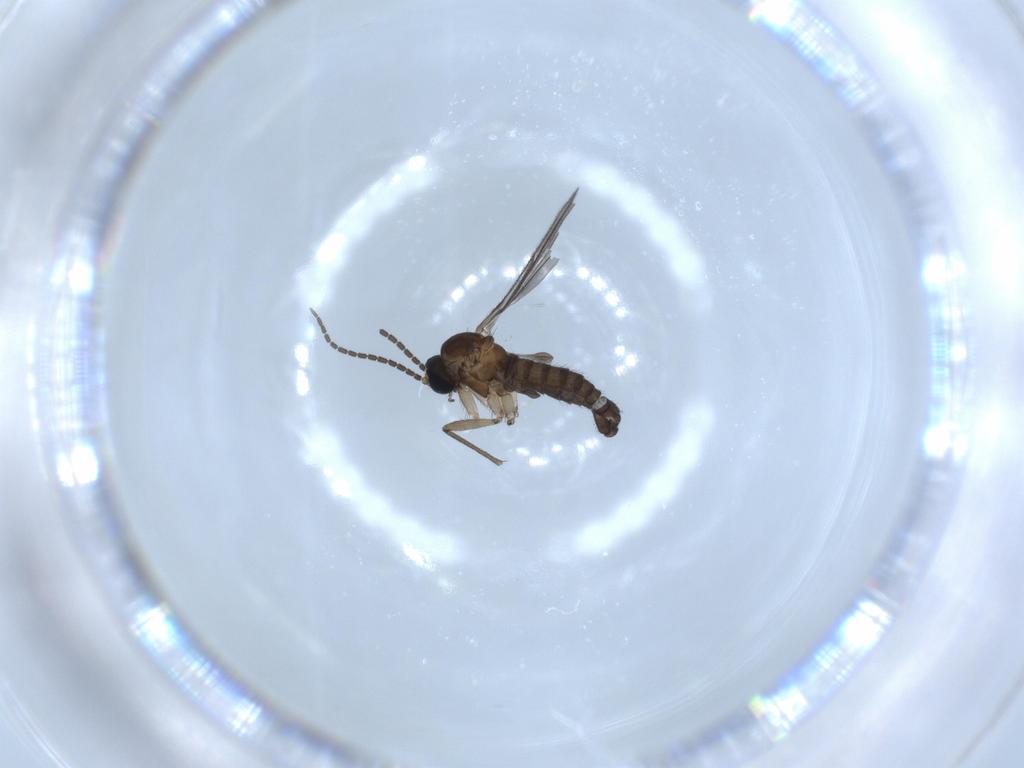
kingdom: Animalia
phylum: Arthropoda
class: Insecta
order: Diptera
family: Sciaridae
